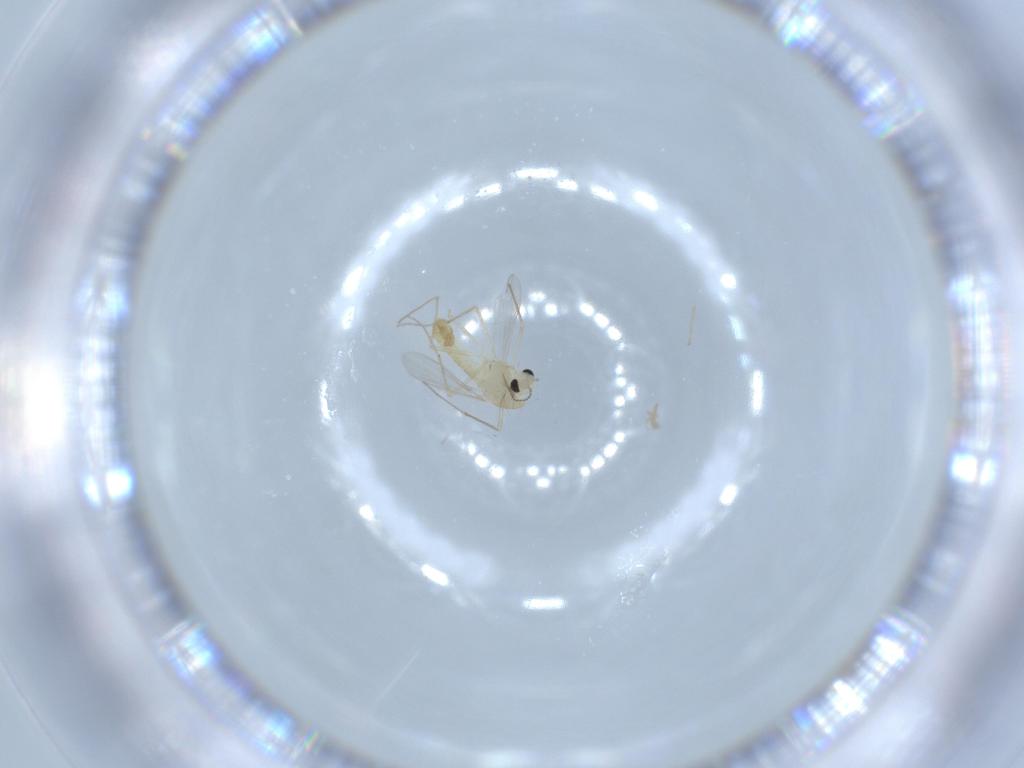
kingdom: Animalia
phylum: Arthropoda
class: Insecta
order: Diptera
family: Chironomidae
